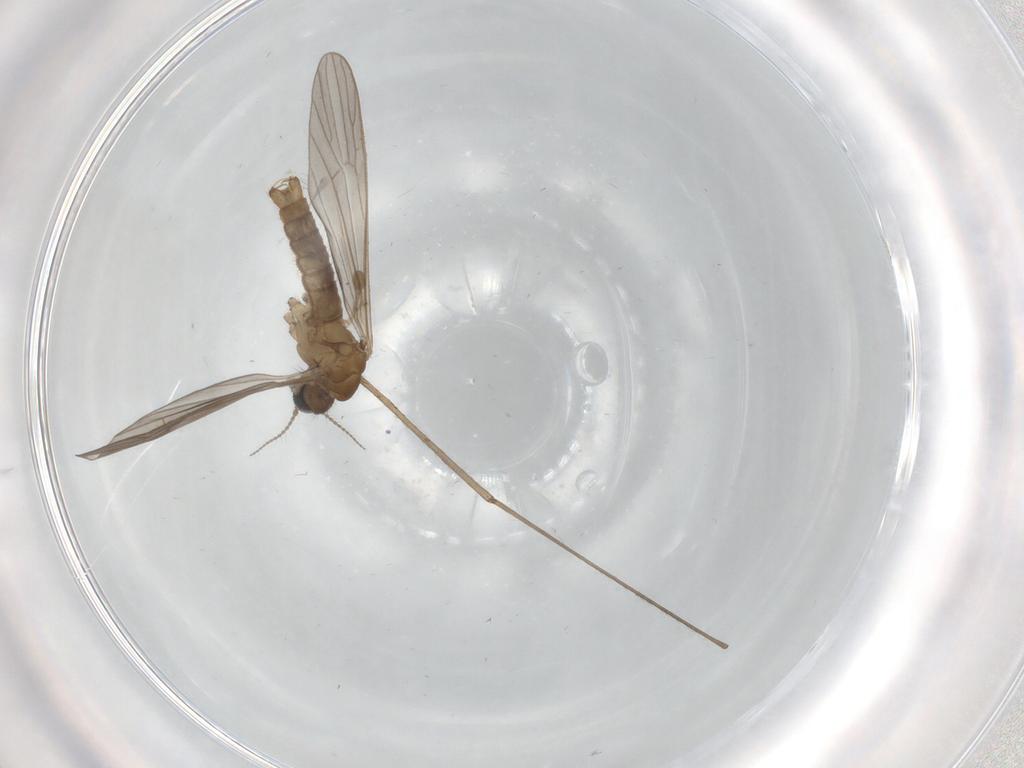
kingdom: Animalia
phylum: Arthropoda
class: Insecta
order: Diptera
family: Limoniidae
